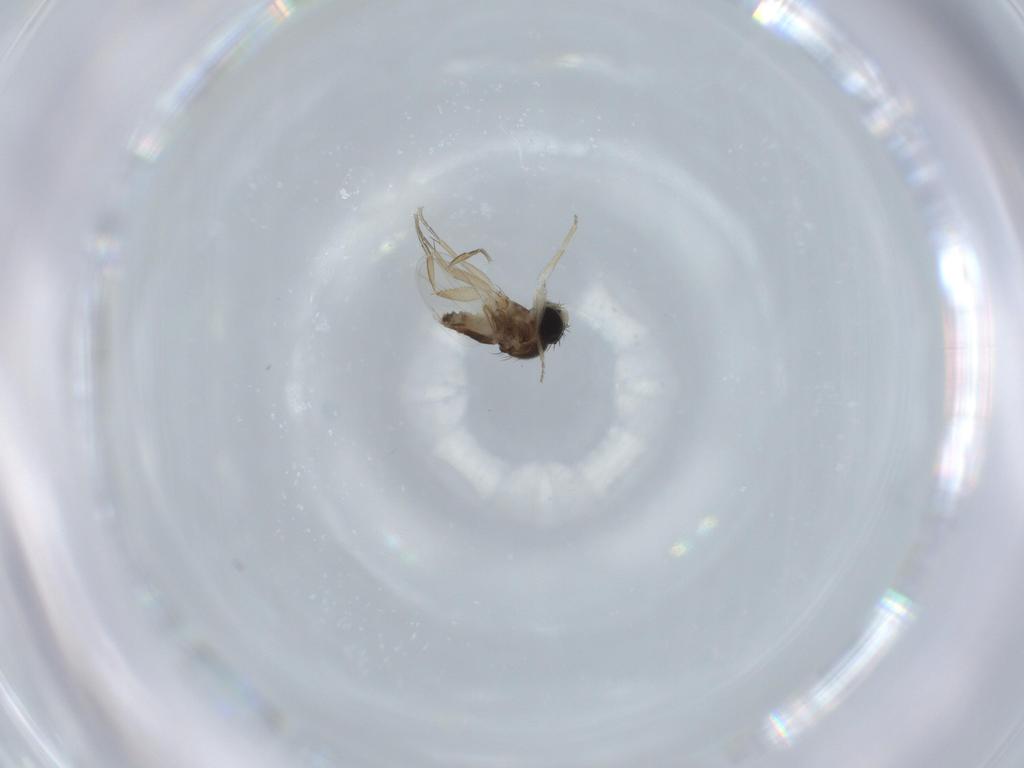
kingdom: Animalia
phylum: Arthropoda
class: Insecta
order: Diptera
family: Phoridae
